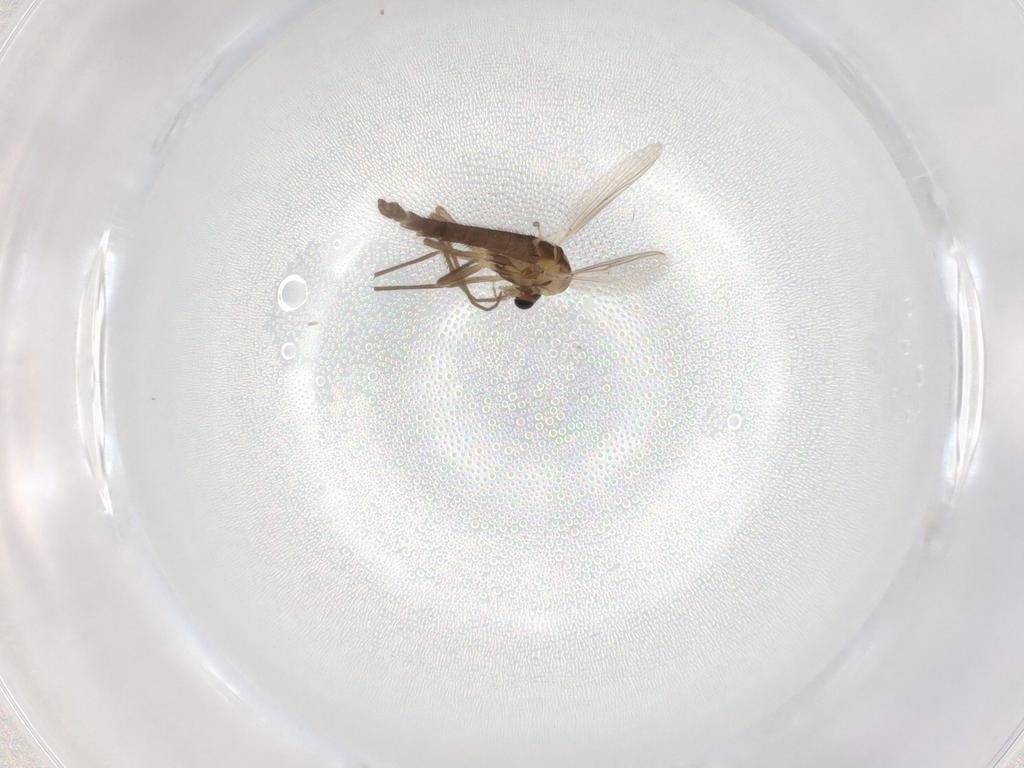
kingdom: Animalia
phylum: Arthropoda
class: Insecta
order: Diptera
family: Chironomidae
